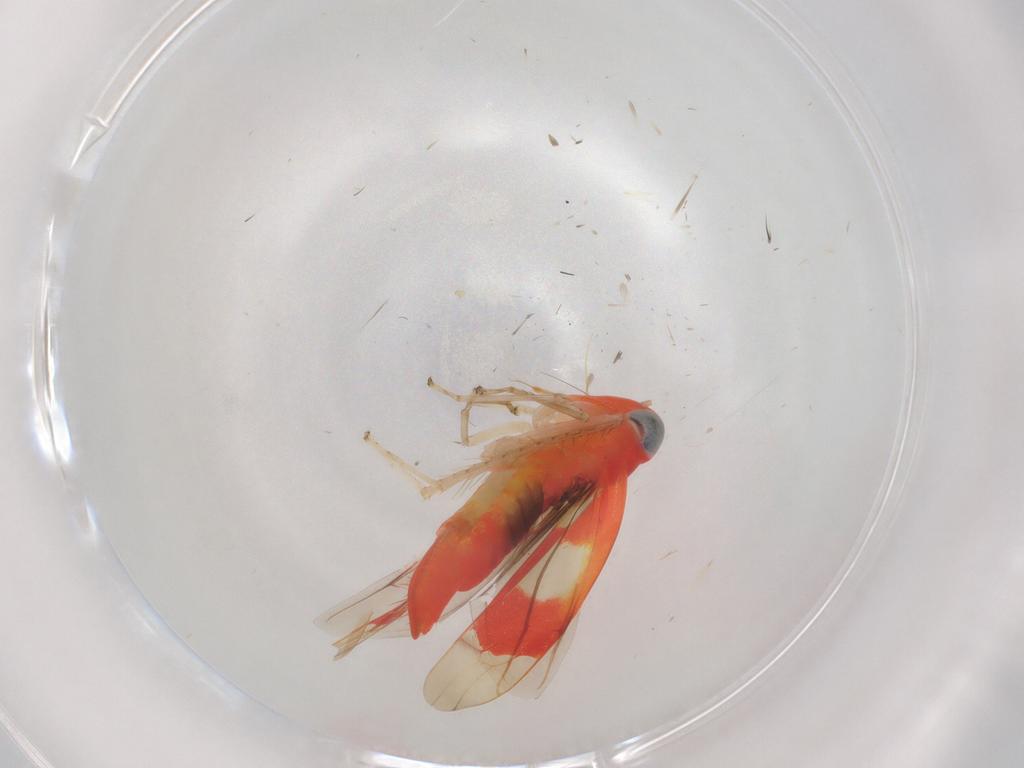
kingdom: Animalia
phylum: Arthropoda
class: Insecta
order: Hemiptera
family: Cicadellidae
